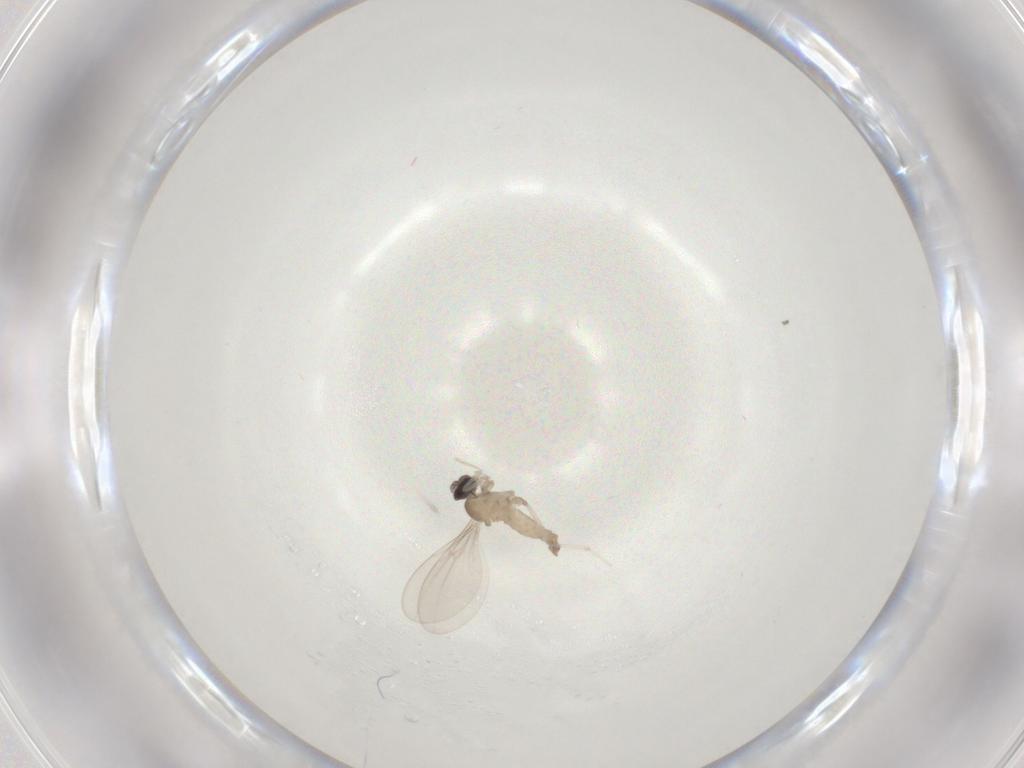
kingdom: Animalia
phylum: Arthropoda
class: Insecta
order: Diptera
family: Cecidomyiidae
